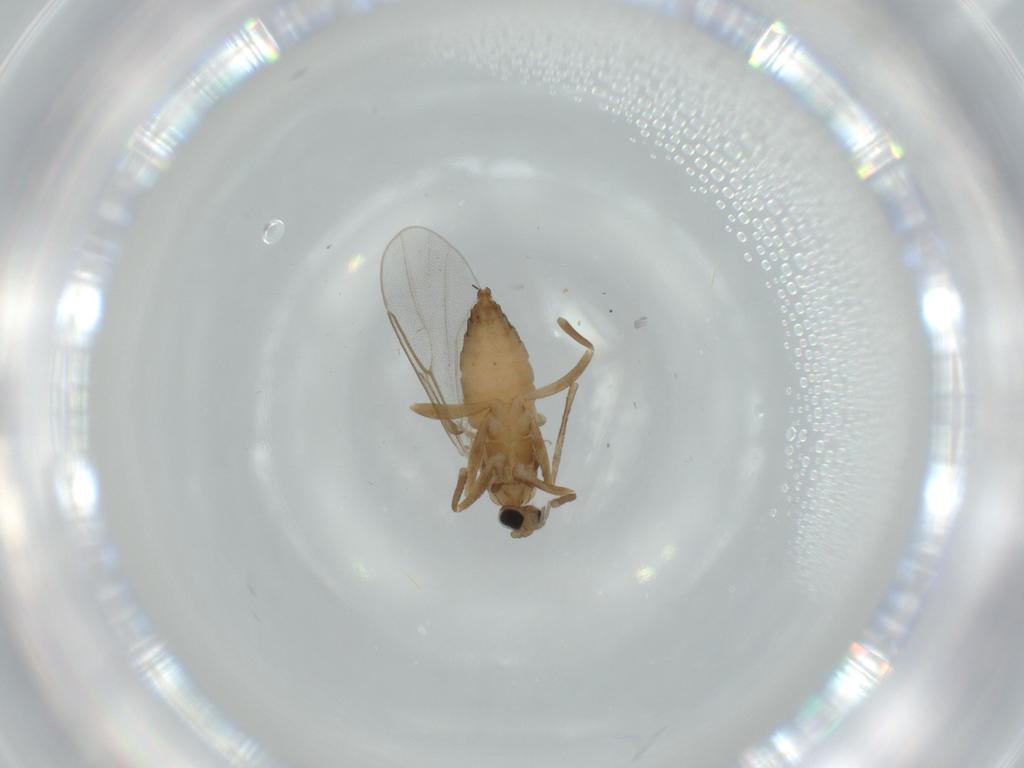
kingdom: Animalia
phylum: Arthropoda
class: Insecta
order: Diptera
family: Cecidomyiidae
